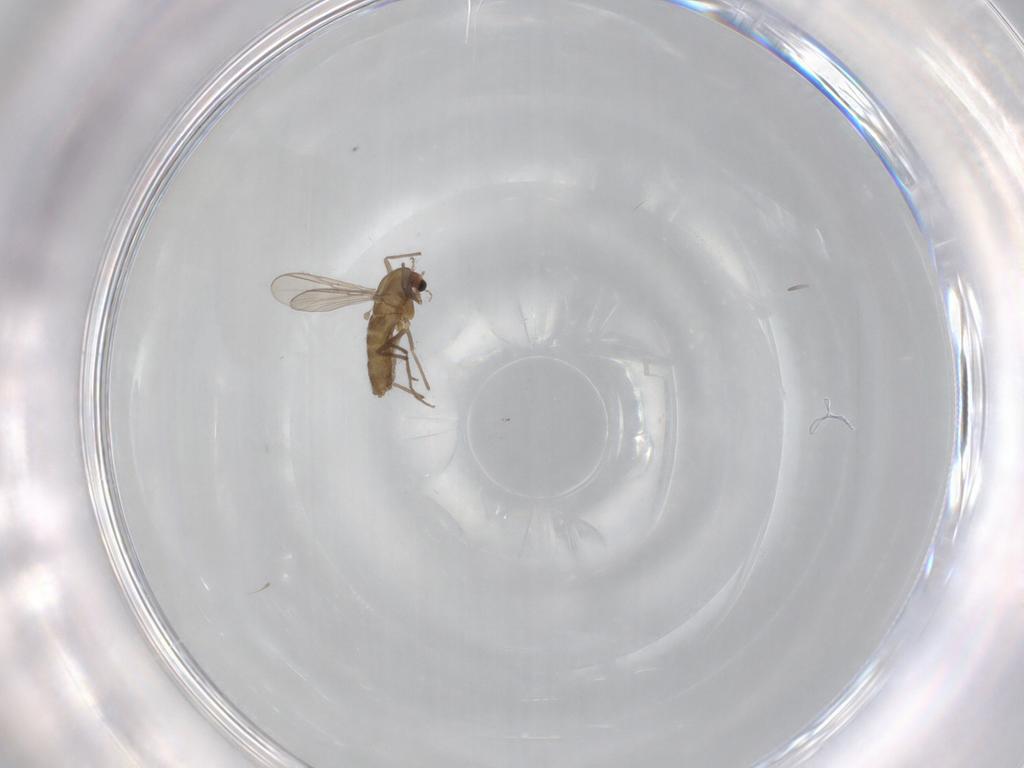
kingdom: Animalia
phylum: Arthropoda
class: Insecta
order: Diptera
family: Chironomidae
